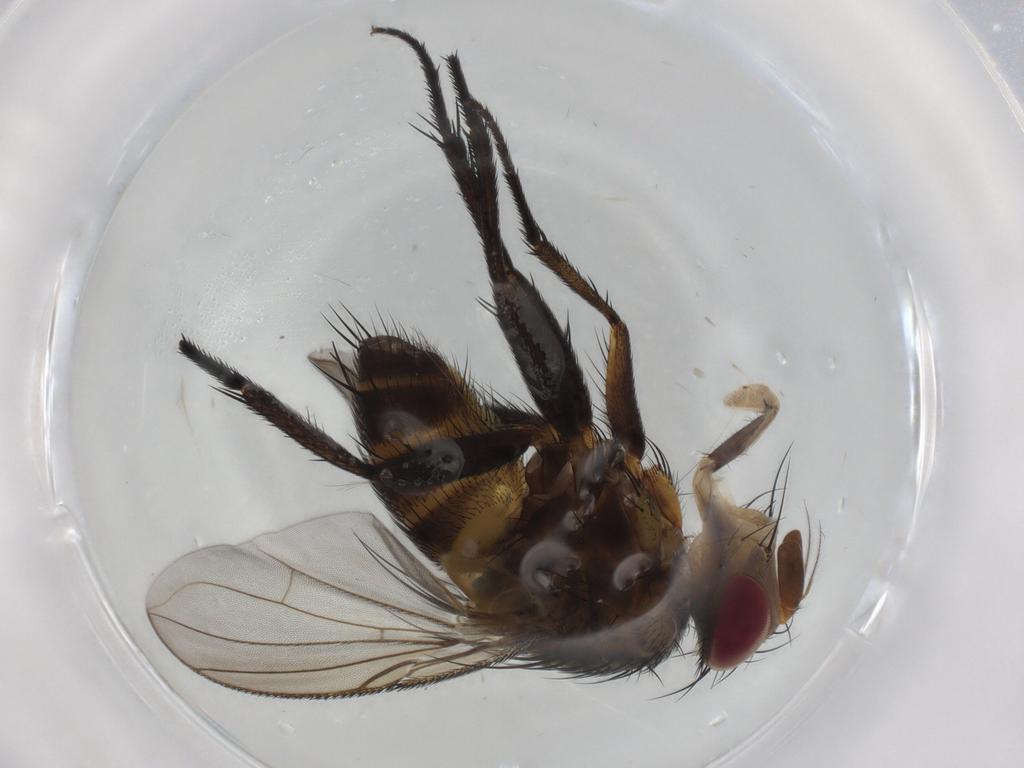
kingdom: Animalia
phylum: Arthropoda
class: Insecta
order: Diptera
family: Tachinidae
